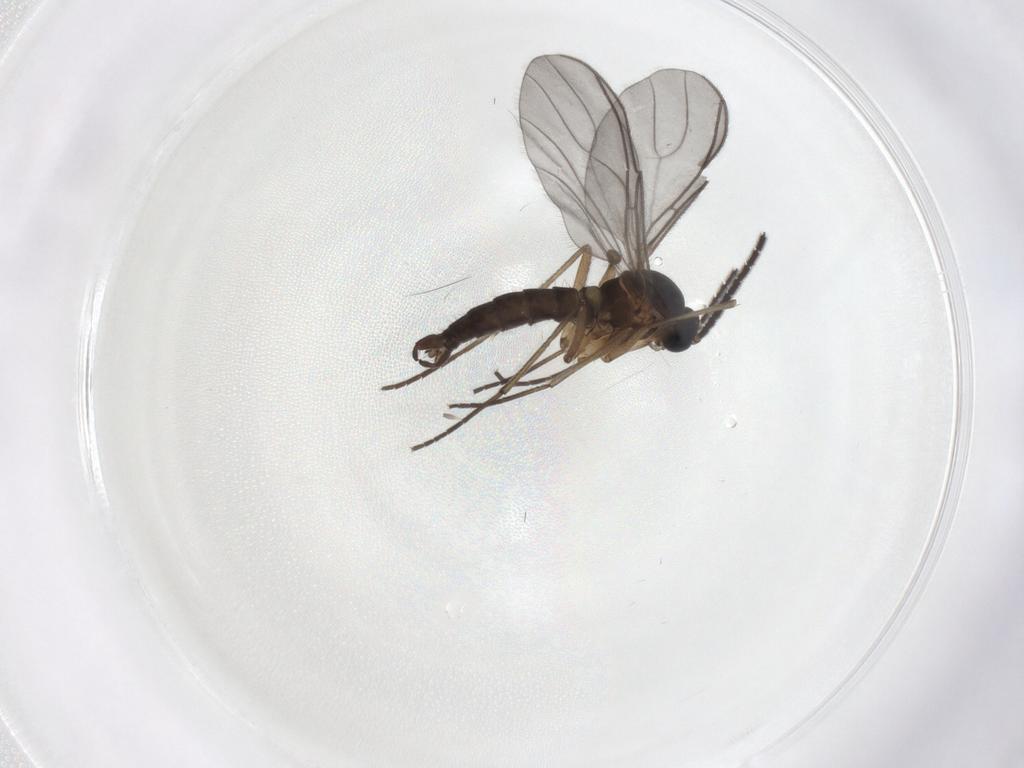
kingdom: Animalia
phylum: Arthropoda
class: Insecta
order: Diptera
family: Sciaridae
